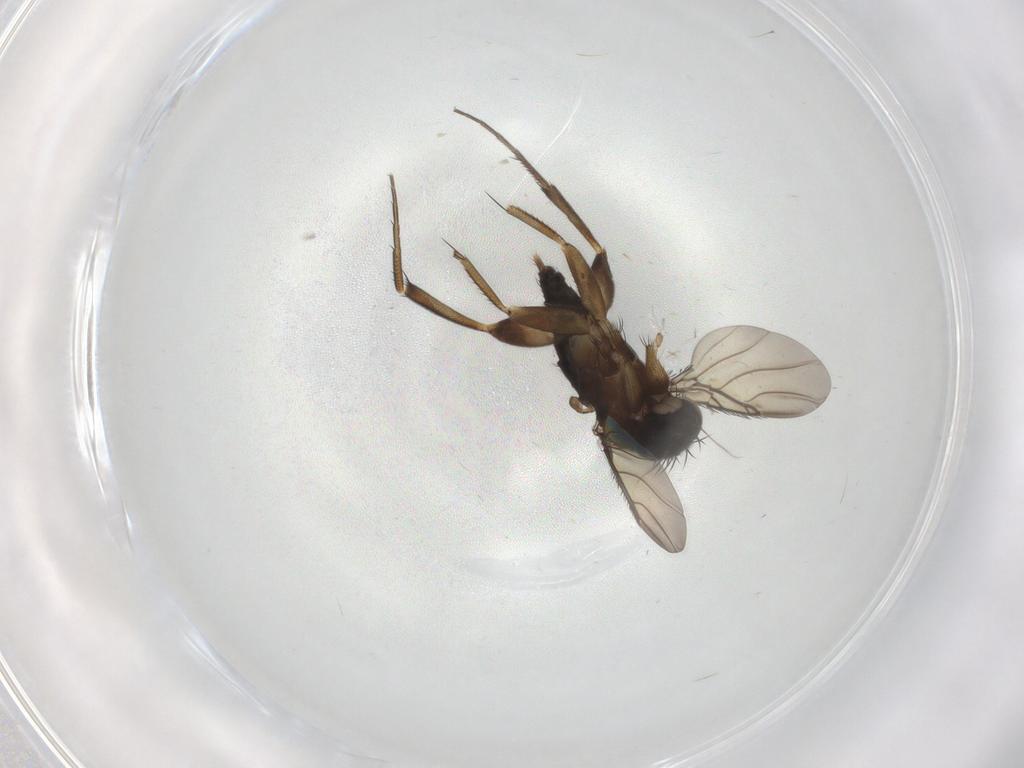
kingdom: Animalia
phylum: Arthropoda
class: Insecta
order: Diptera
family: Phoridae
